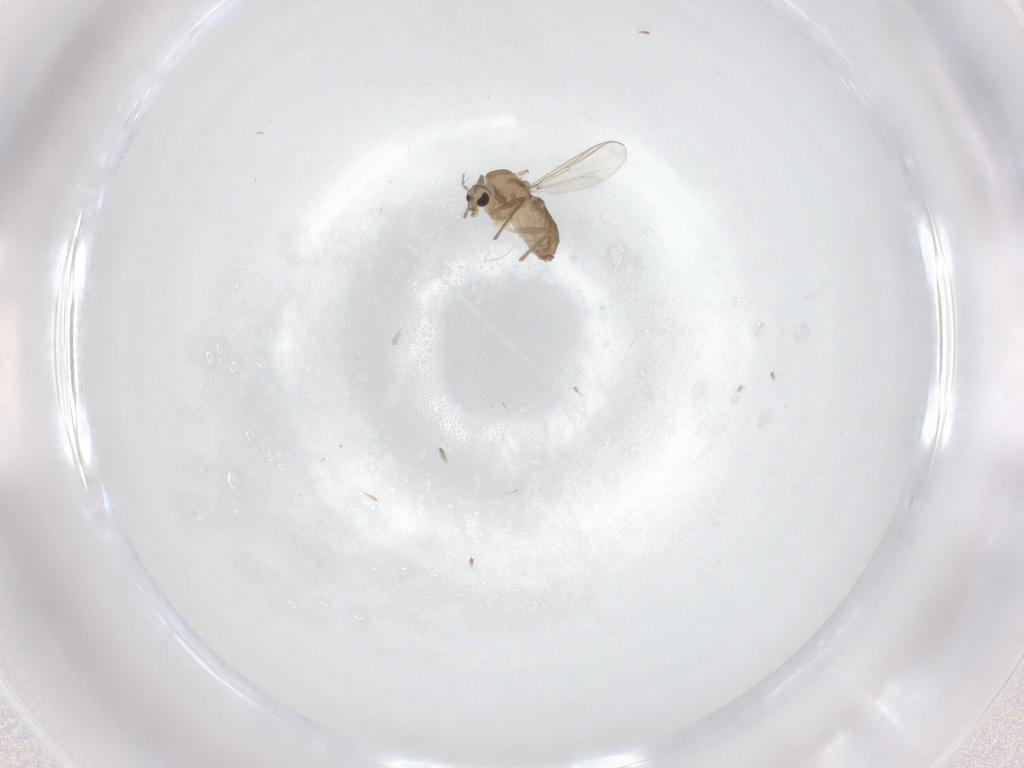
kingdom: Animalia
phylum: Arthropoda
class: Insecta
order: Diptera
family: Chironomidae
